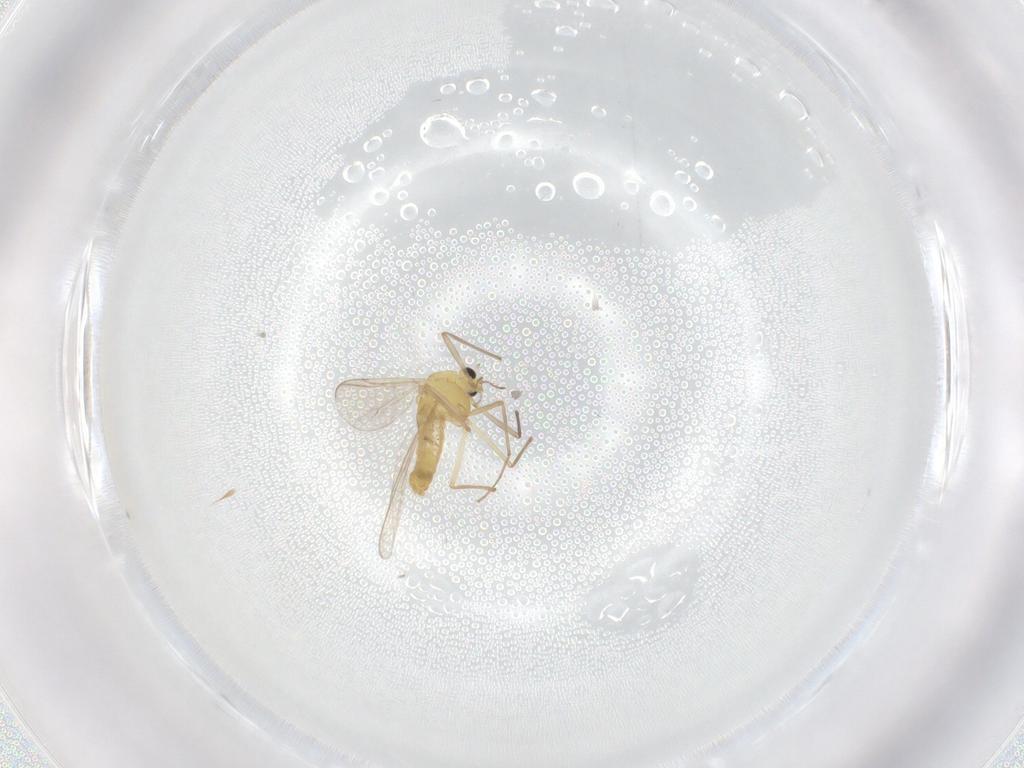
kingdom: Animalia
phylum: Arthropoda
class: Insecta
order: Diptera
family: Chironomidae
